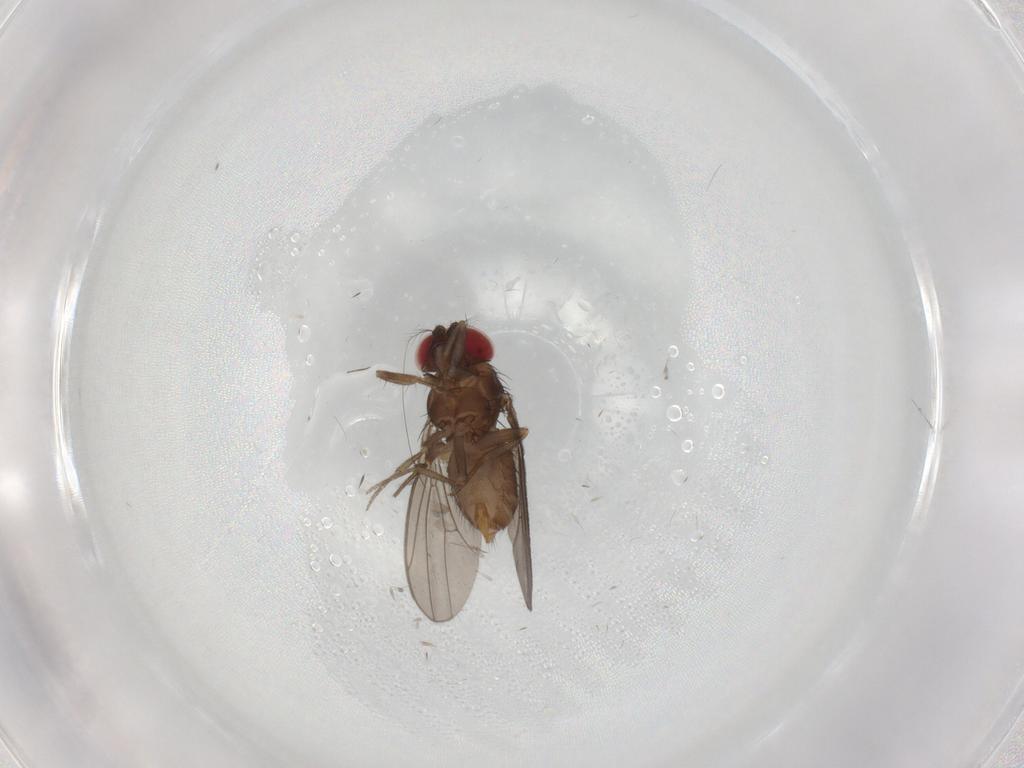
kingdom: Animalia
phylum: Arthropoda
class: Insecta
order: Diptera
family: Drosophilidae
